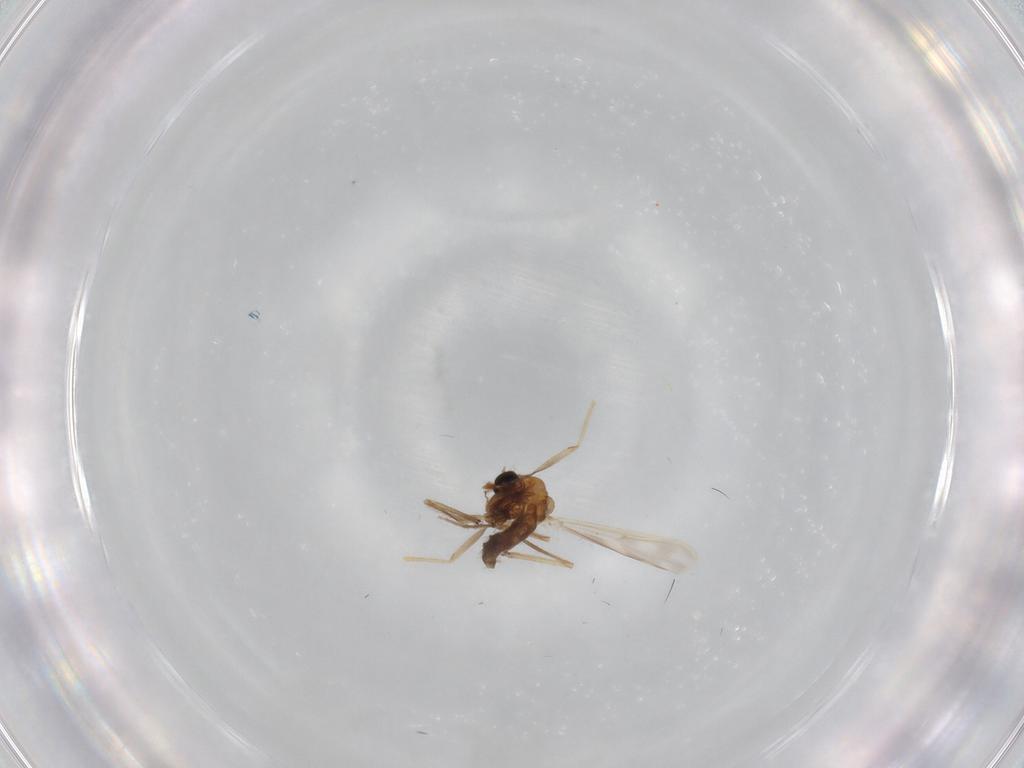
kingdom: Animalia
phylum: Arthropoda
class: Insecta
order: Diptera
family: Chironomidae
